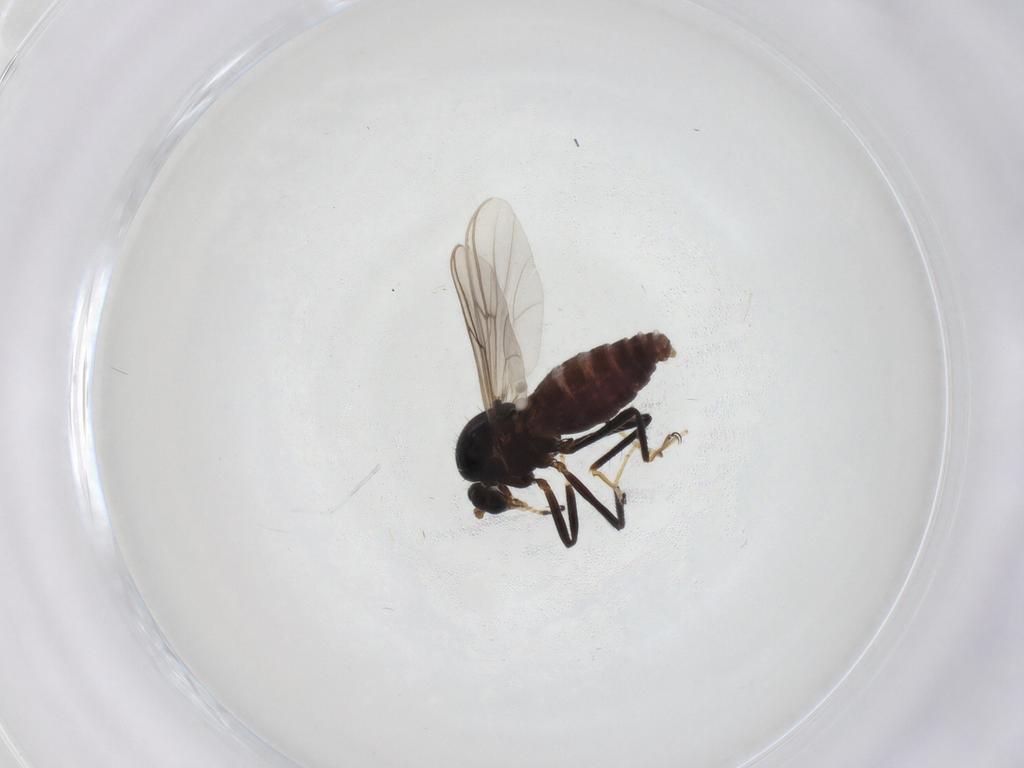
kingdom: Animalia
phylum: Arthropoda
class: Insecta
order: Diptera
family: Ceratopogonidae
